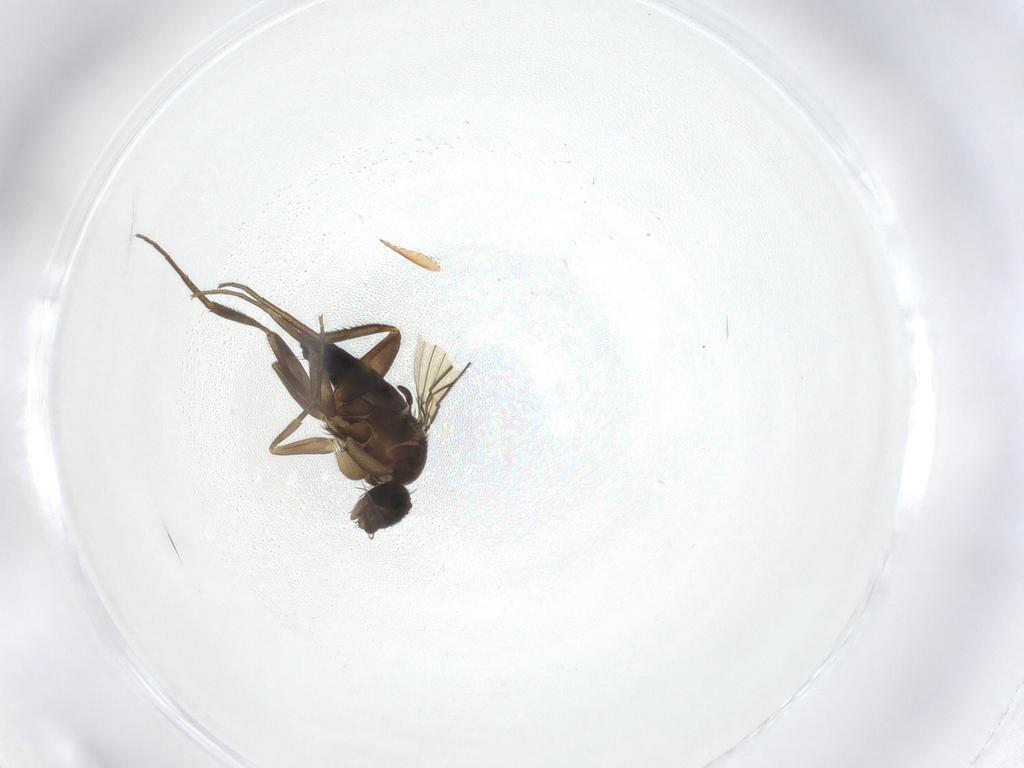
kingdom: Animalia
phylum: Arthropoda
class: Insecta
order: Diptera
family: Phoridae
